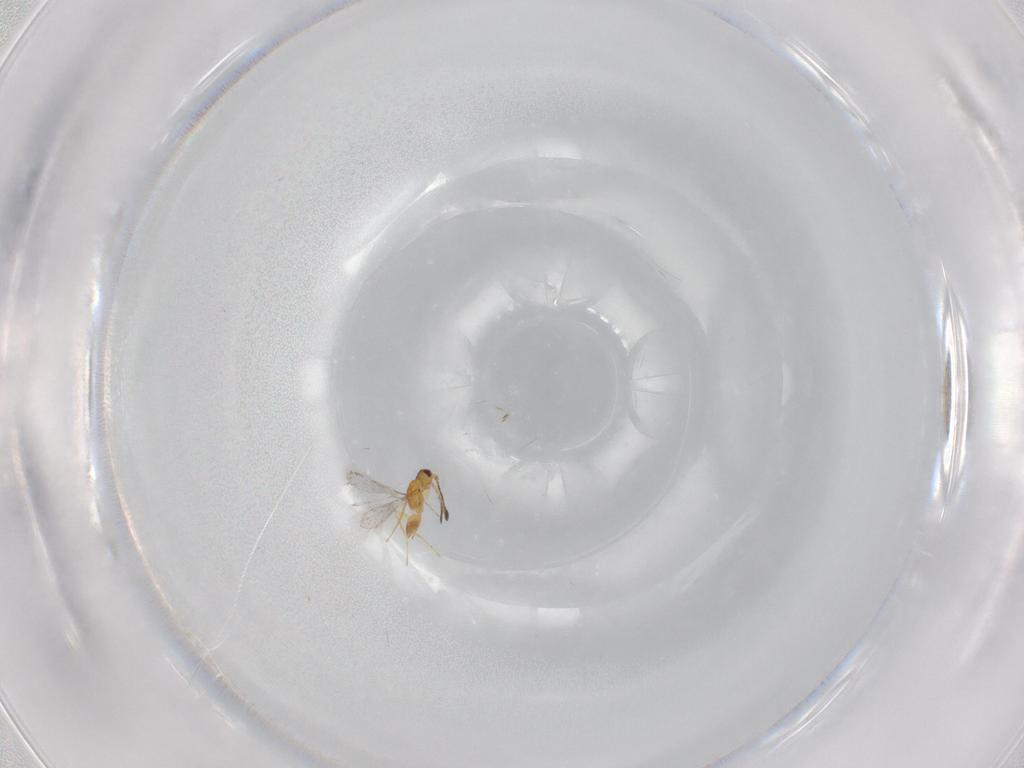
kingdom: Animalia
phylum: Arthropoda
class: Insecta
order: Hymenoptera
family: Mymaridae
